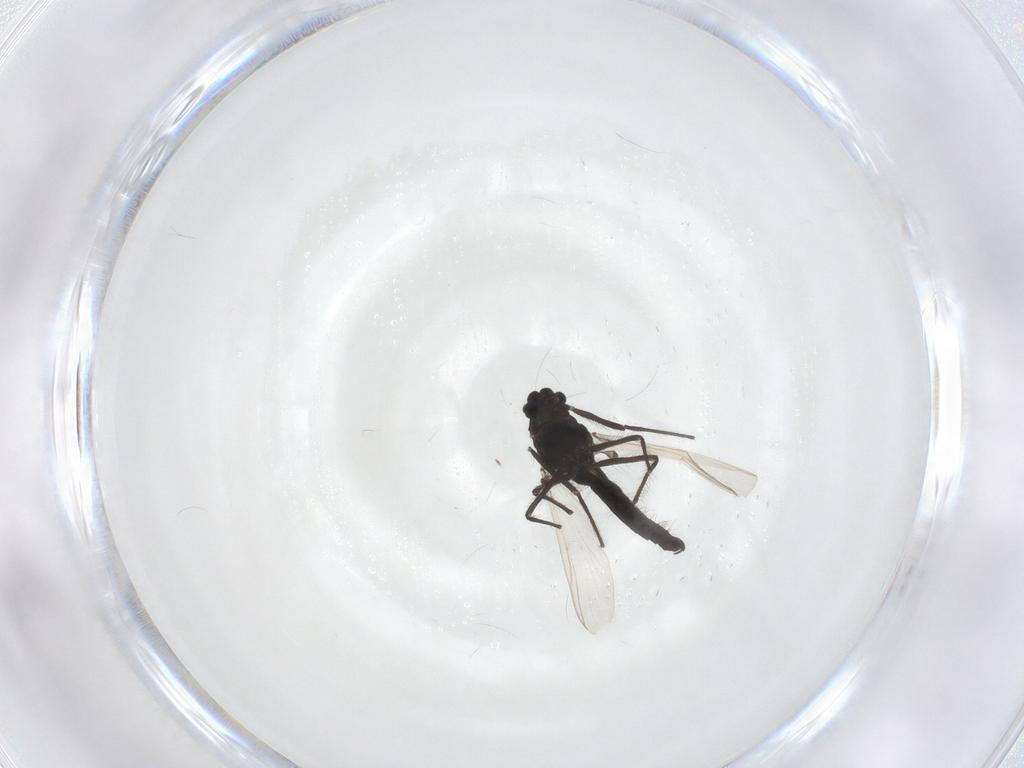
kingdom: Animalia
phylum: Arthropoda
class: Insecta
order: Diptera
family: Chironomidae
